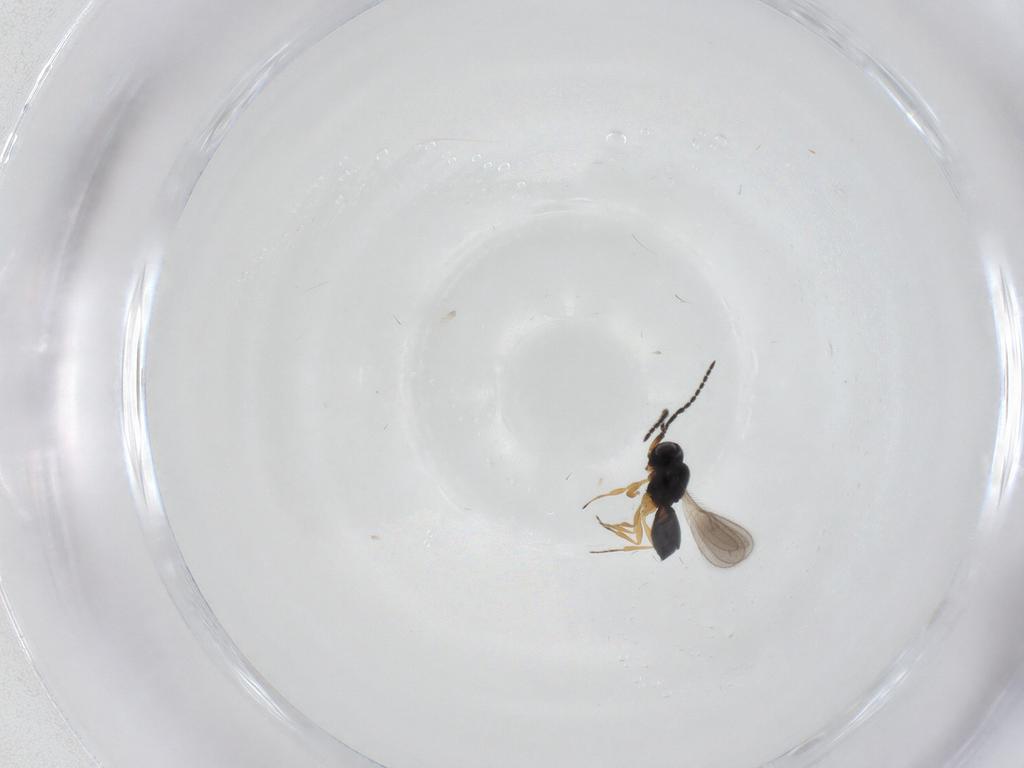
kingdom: Animalia
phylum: Arthropoda
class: Insecta
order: Hymenoptera
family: Scelionidae
